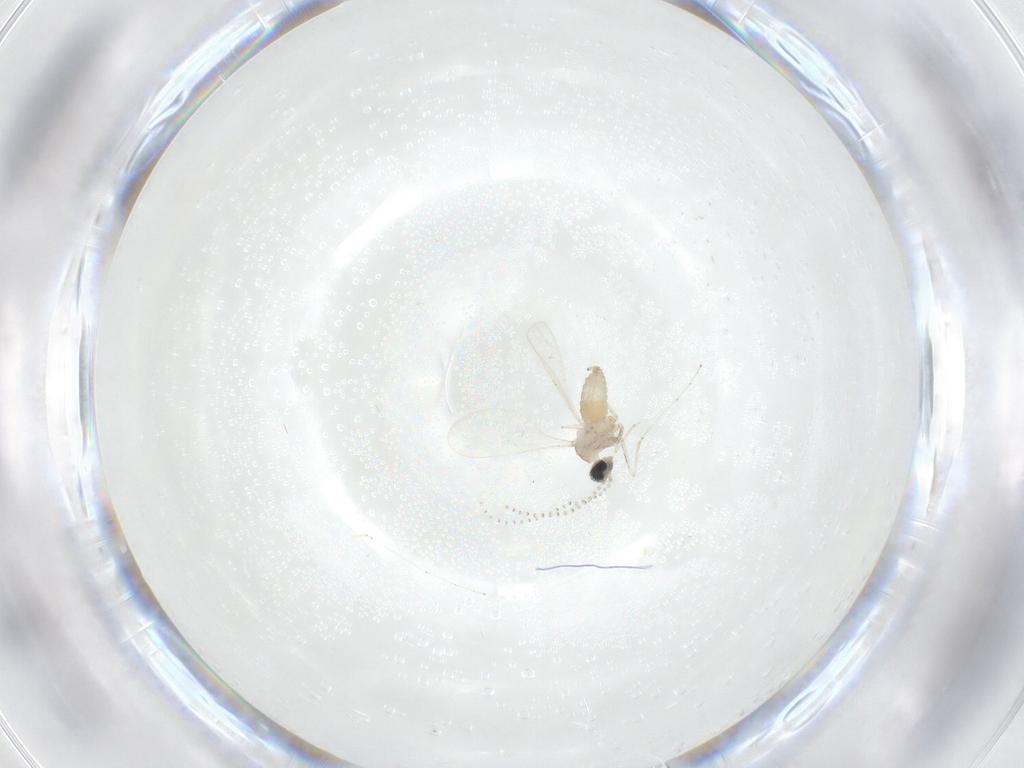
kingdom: Animalia
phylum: Arthropoda
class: Insecta
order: Diptera
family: Cecidomyiidae
